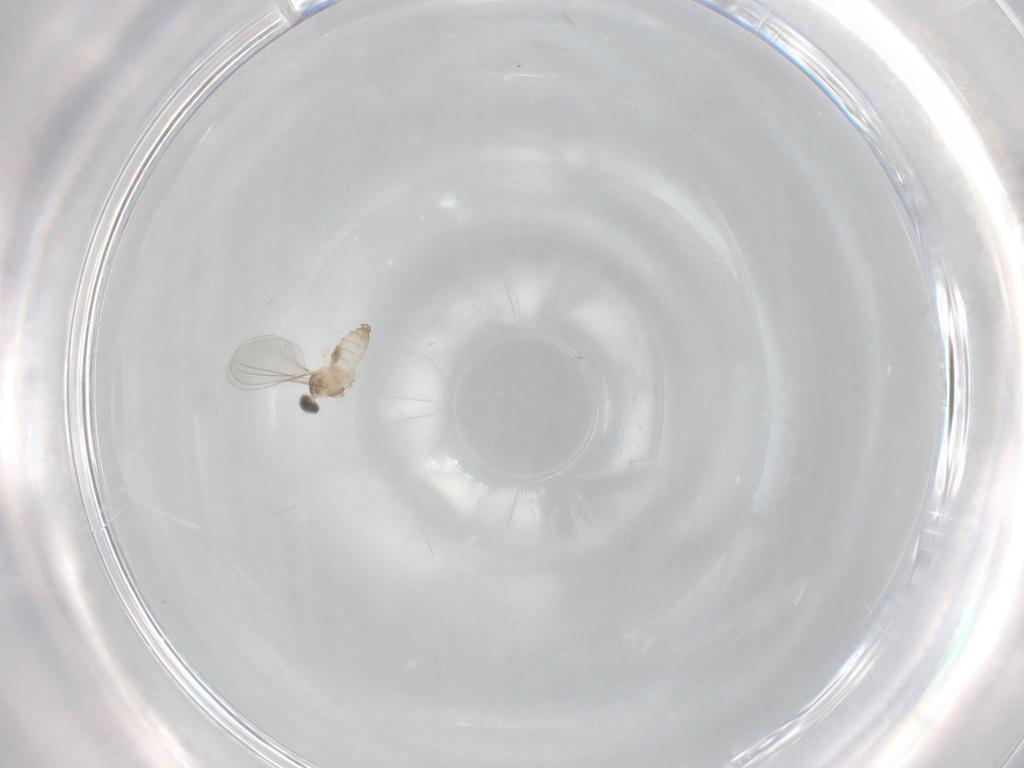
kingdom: Animalia
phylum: Arthropoda
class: Insecta
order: Diptera
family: Cecidomyiidae
